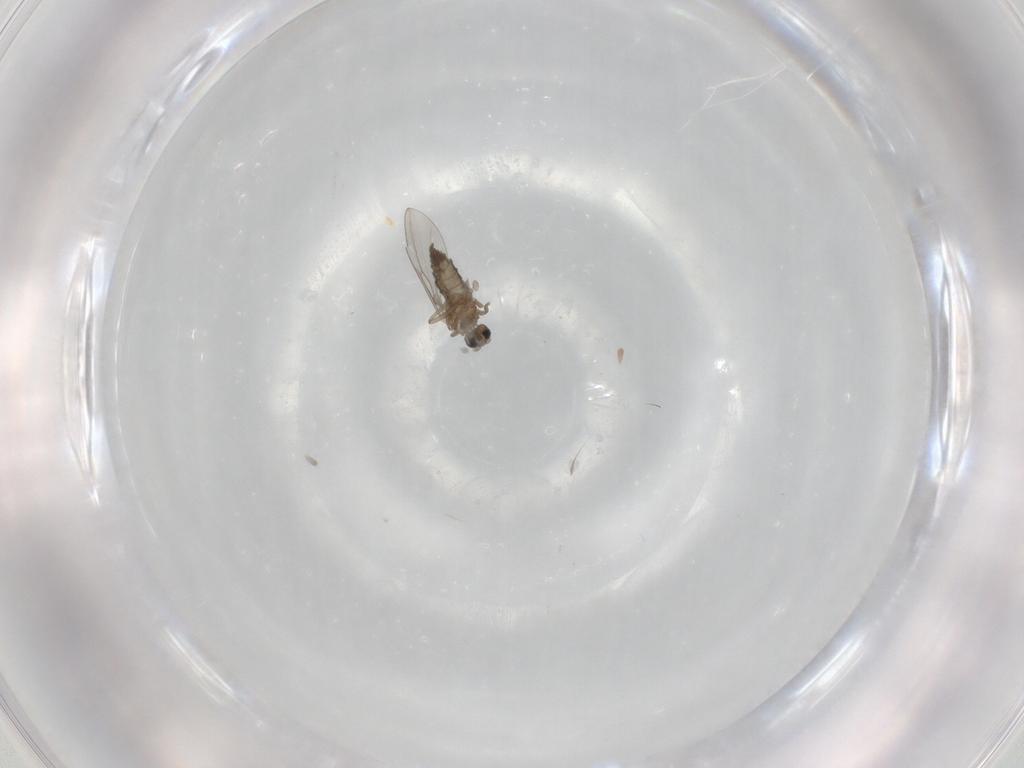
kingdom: Animalia
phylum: Arthropoda
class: Insecta
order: Diptera
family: Cecidomyiidae
